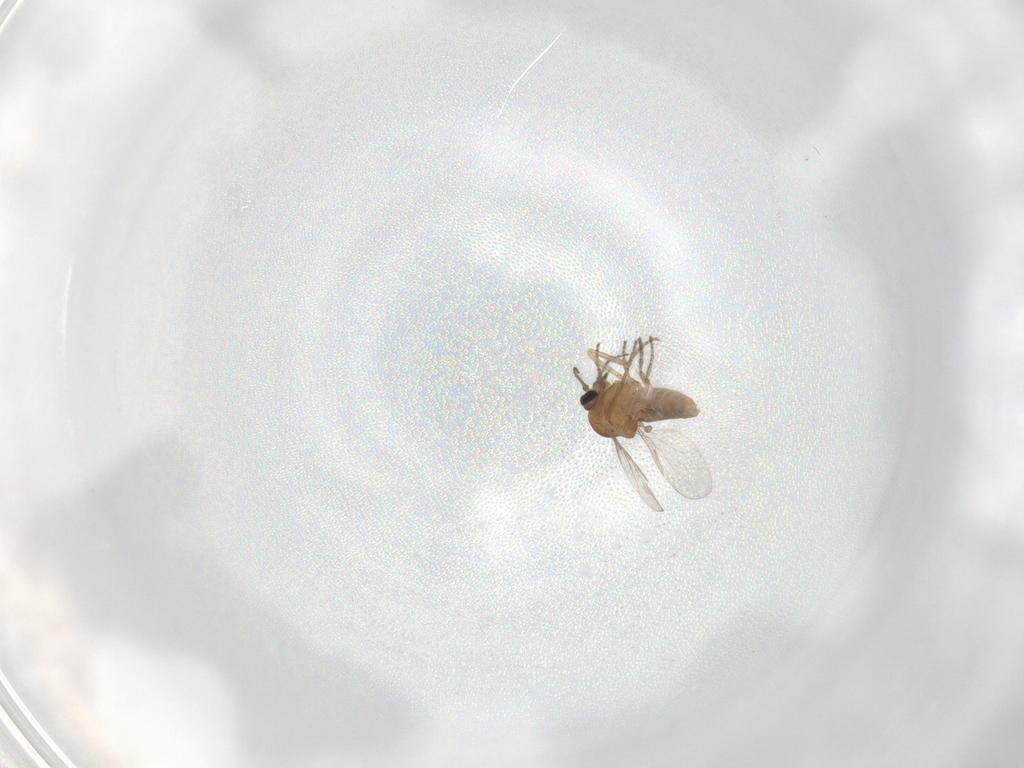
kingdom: Animalia
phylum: Arthropoda
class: Insecta
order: Diptera
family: Ceratopogonidae
